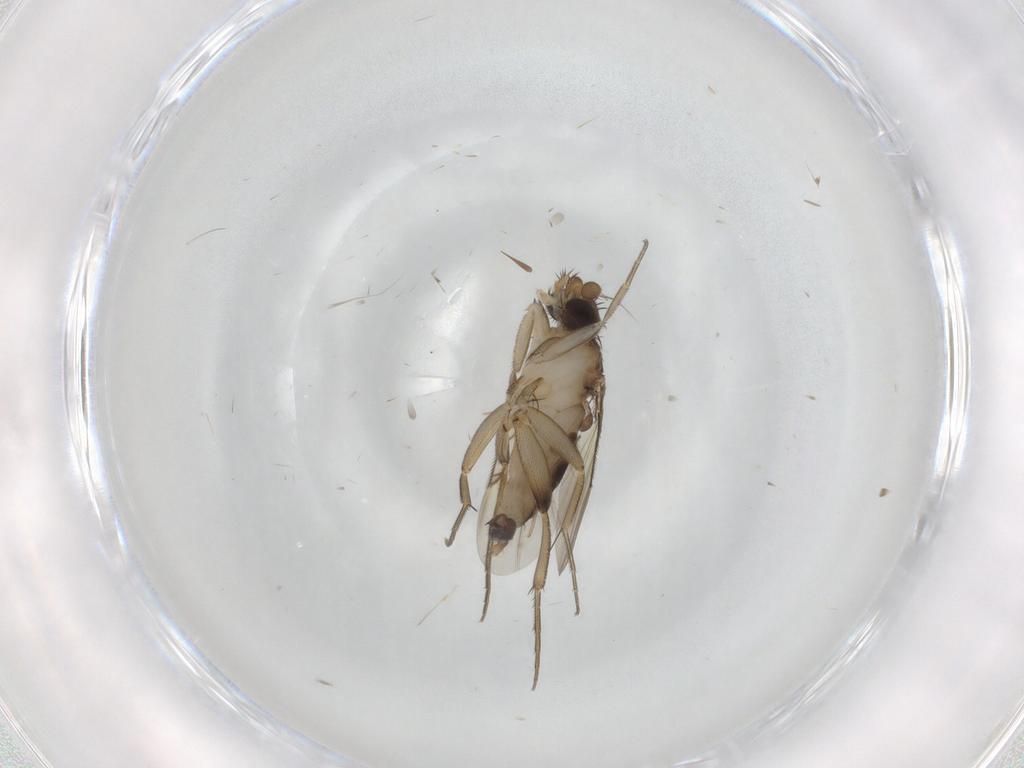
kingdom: Animalia
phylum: Arthropoda
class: Insecta
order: Diptera
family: Phoridae
